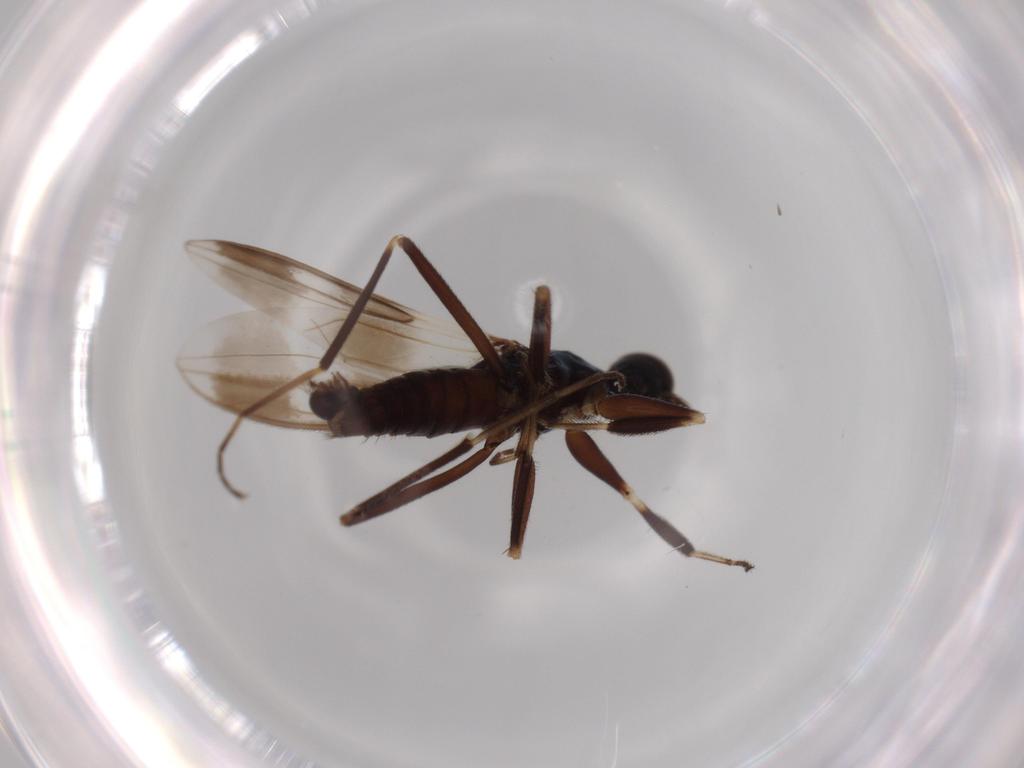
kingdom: Animalia
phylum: Arthropoda
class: Insecta
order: Diptera
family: Hybotidae
